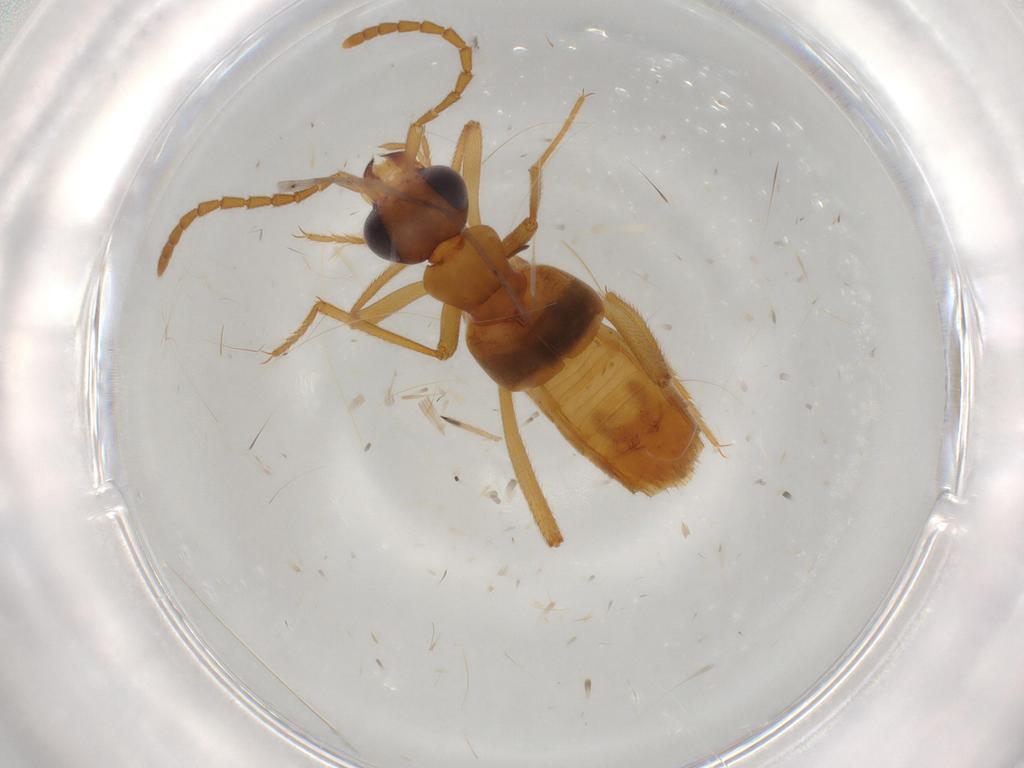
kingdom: Animalia
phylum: Arthropoda
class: Insecta
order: Coleoptera
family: Staphylinidae
